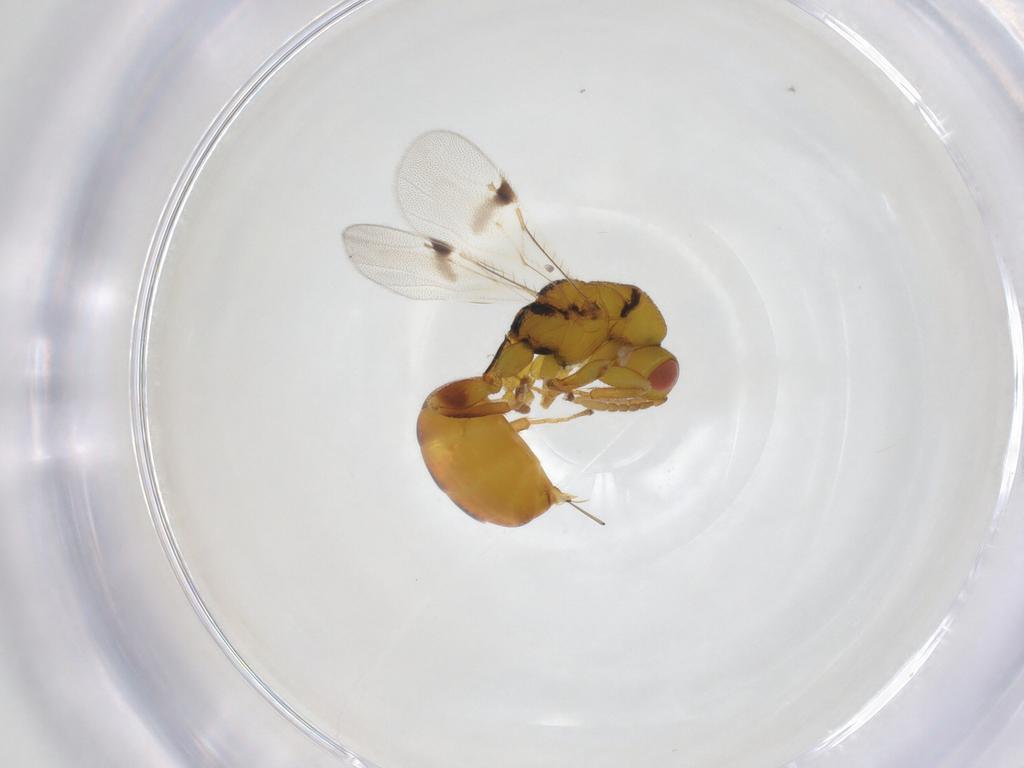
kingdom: Animalia
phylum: Arthropoda
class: Insecta
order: Hymenoptera
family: Eurytomidae
